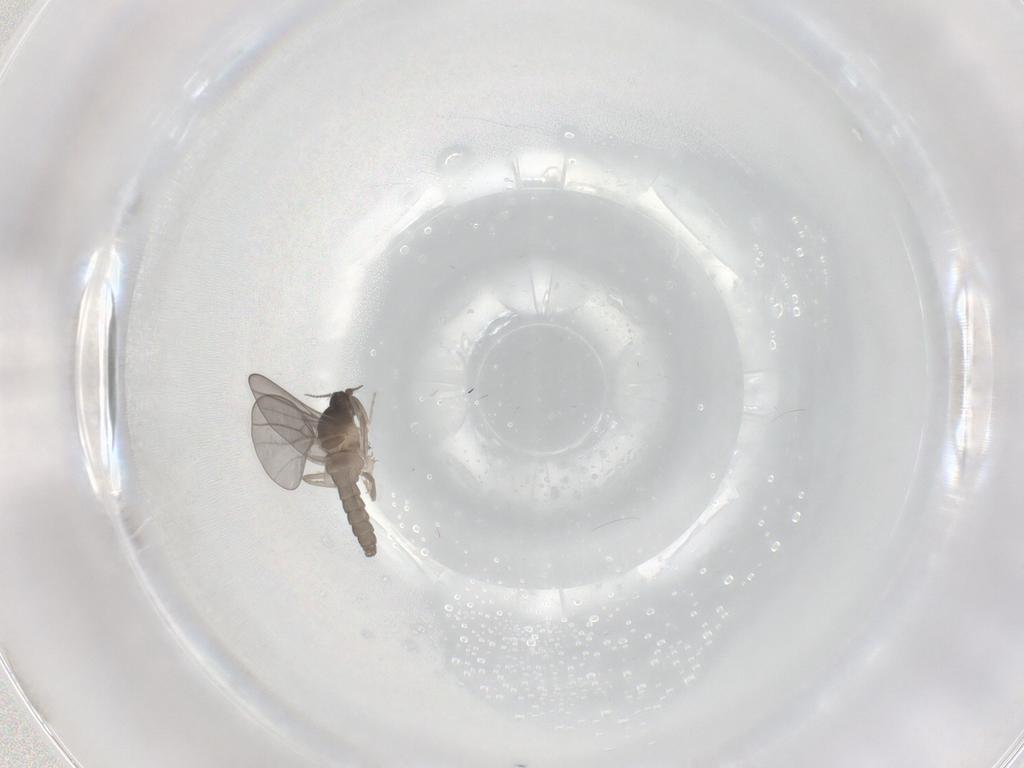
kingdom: Animalia
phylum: Arthropoda
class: Insecta
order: Diptera
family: Cecidomyiidae
